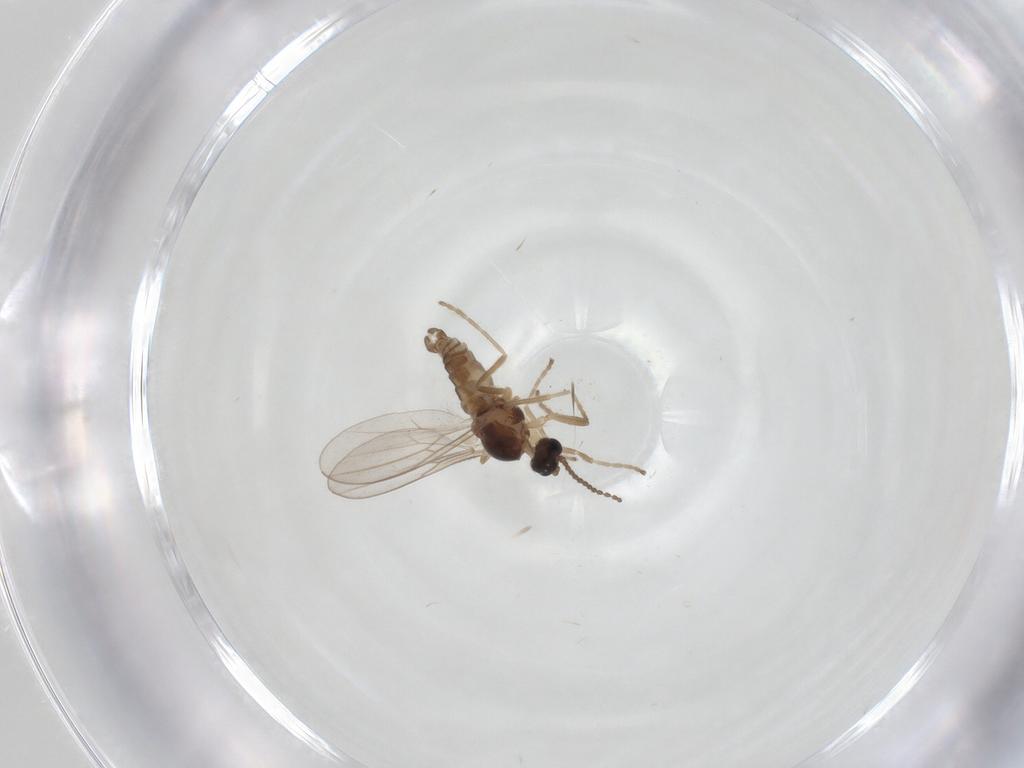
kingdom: Animalia
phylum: Arthropoda
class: Insecta
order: Diptera
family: Cecidomyiidae
